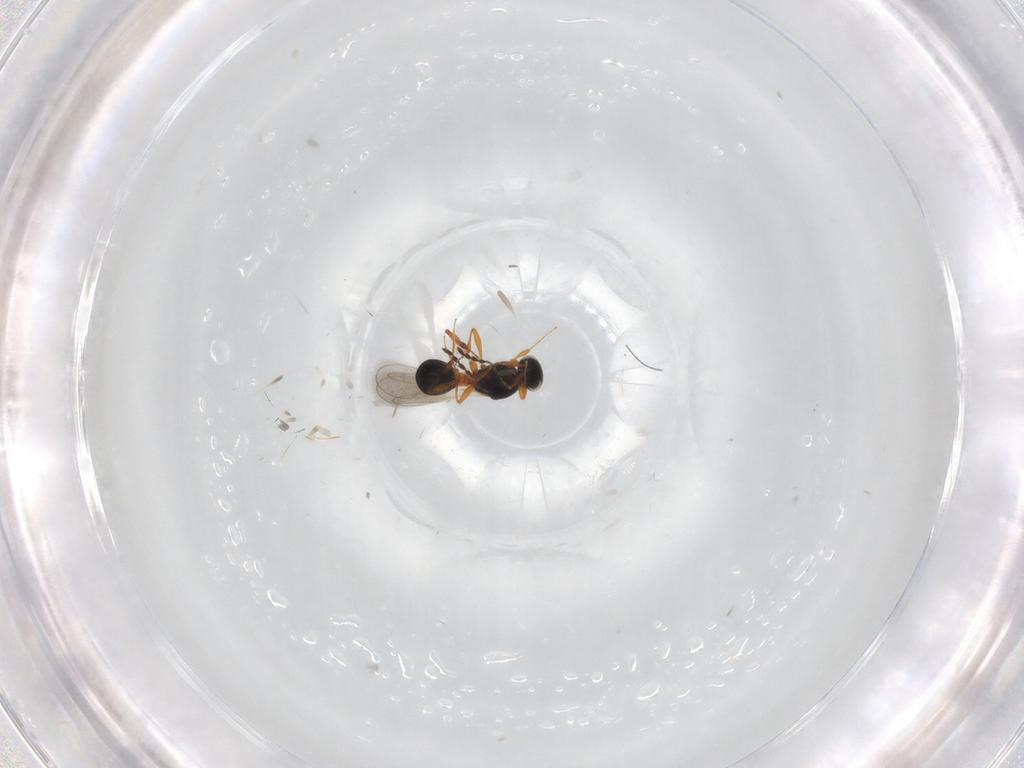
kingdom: Animalia
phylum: Arthropoda
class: Insecta
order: Hymenoptera
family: Platygastridae
